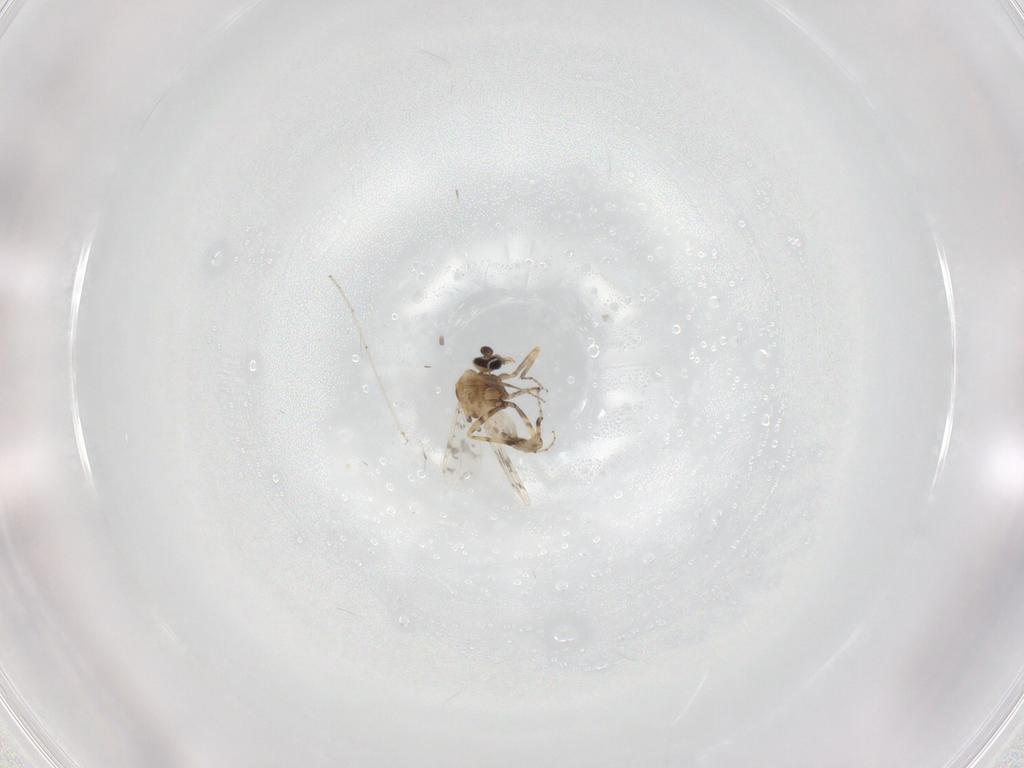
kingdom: Animalia
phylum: Arthropoda
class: Insecta
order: Diptera
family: Ceratopogonidae
